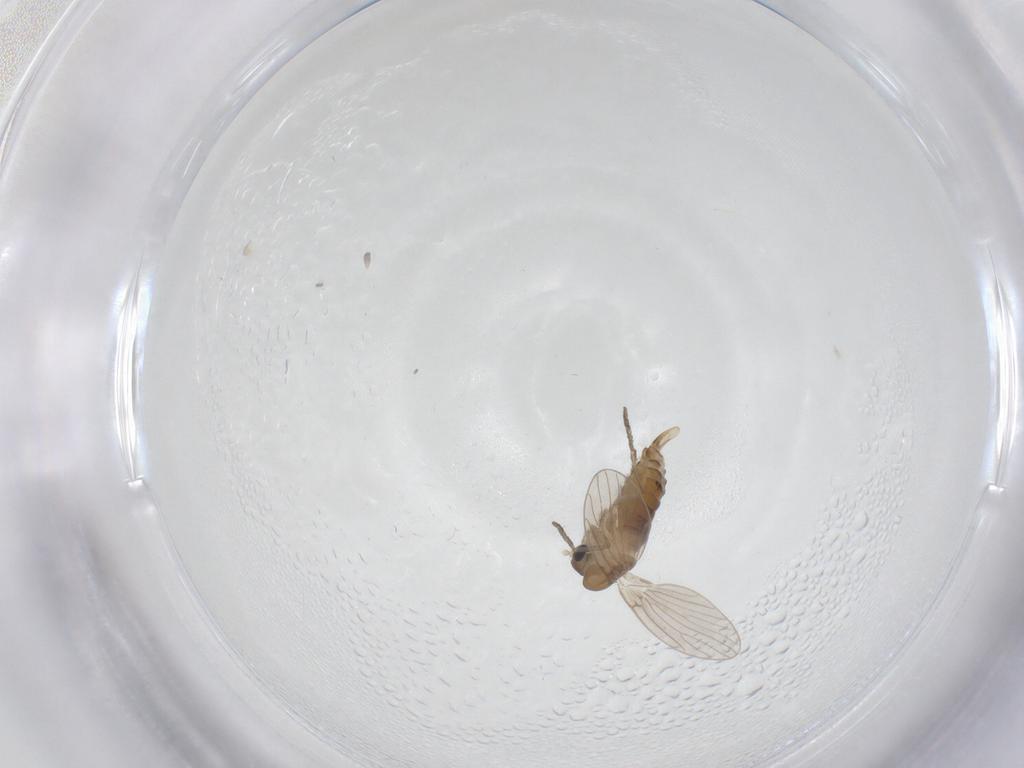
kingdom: Animalia
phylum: Arthropoda
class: Insecta
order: Diptera
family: Psychodidae
